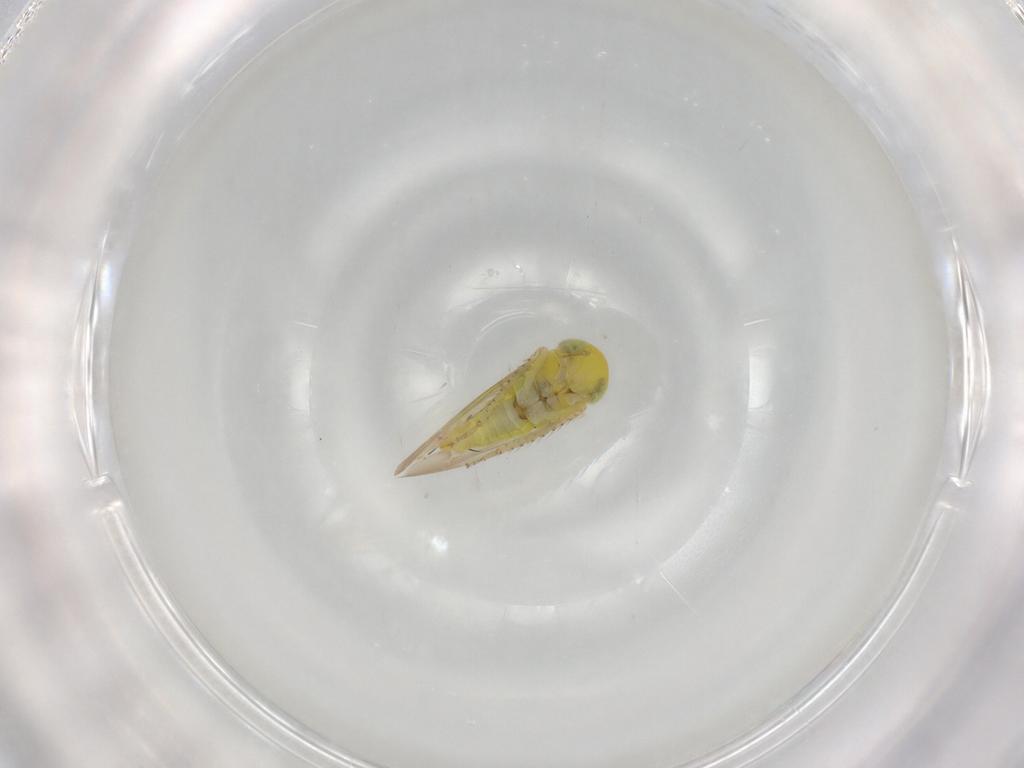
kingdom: Animalia
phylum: Arthropoda
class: Insecta
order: Hemiptera
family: Cicadellidae
